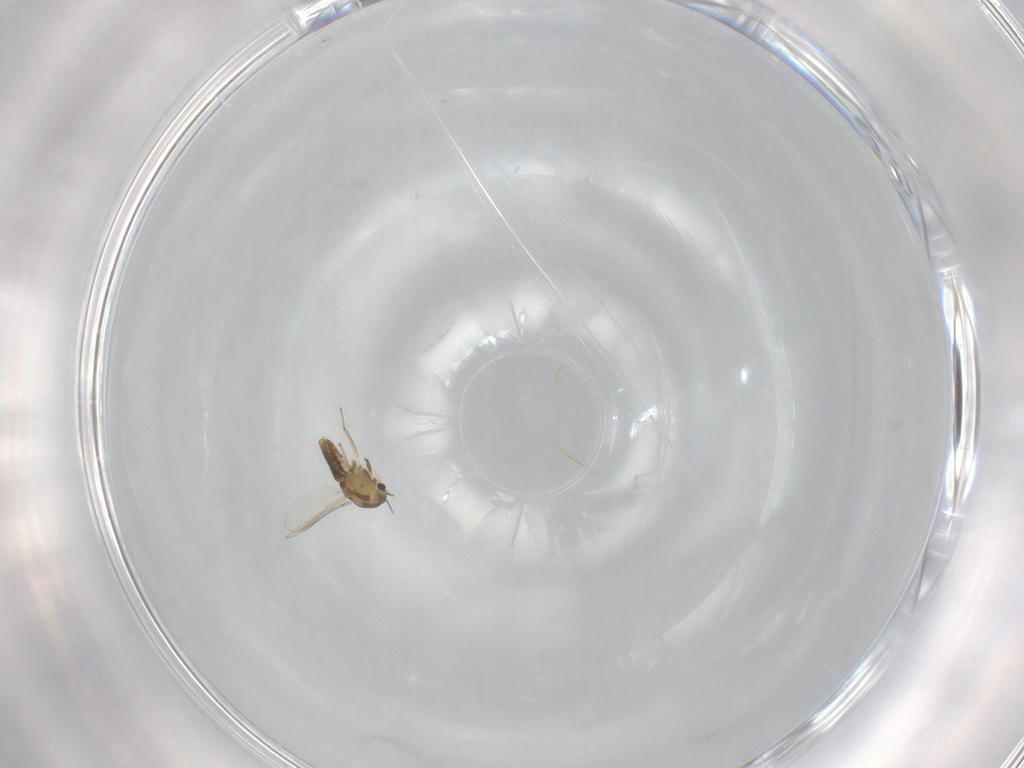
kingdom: Animalia
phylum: Arthropoda
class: Insecta
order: Diptera
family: Chironomidae
